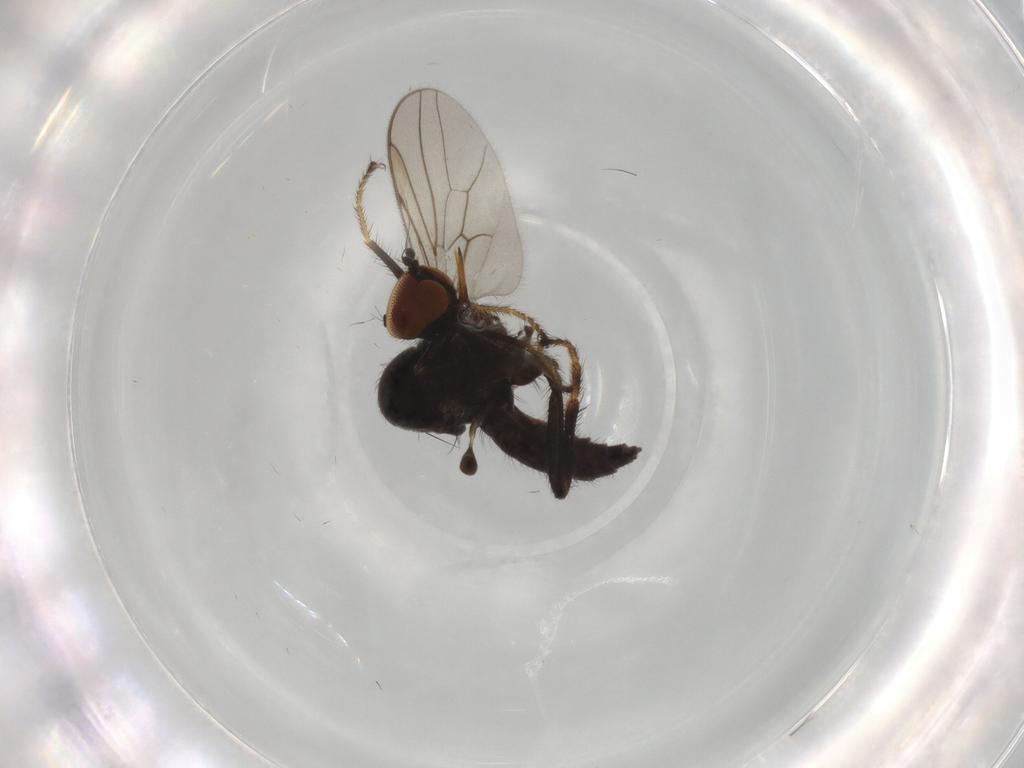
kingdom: Animalia
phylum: Arthropoda
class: Insecta
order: Diptera
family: Hybotidae
